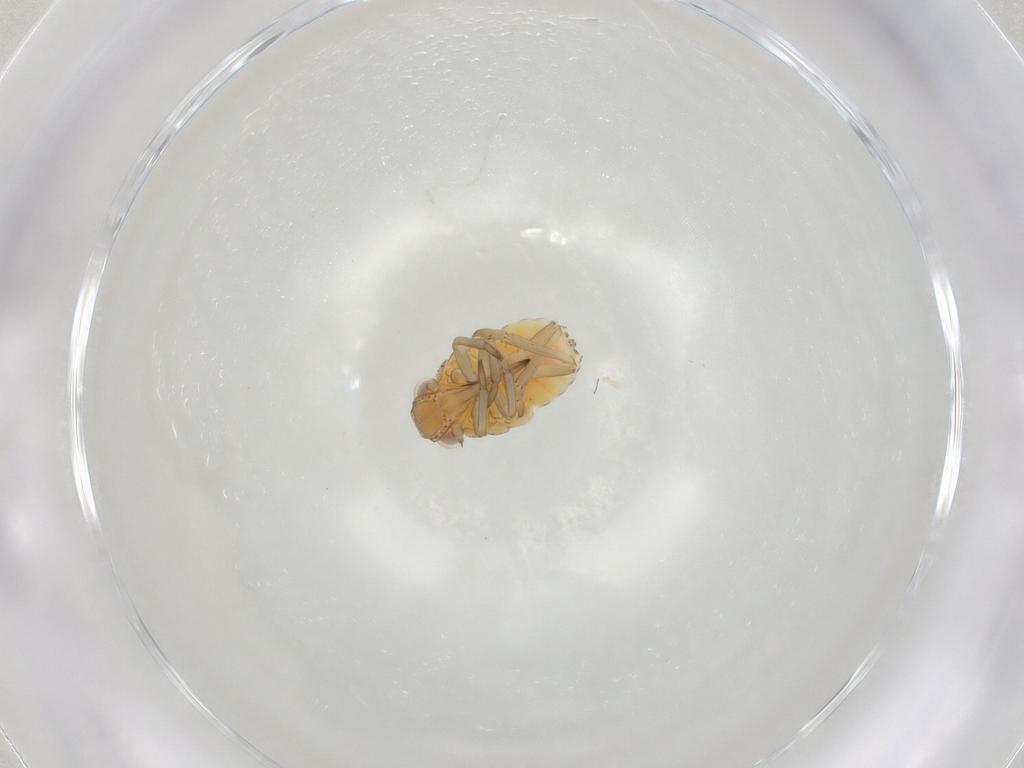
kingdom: Animalia
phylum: Arthropoda
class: Insecta
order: Hemiptera
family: Tropiduchidae
